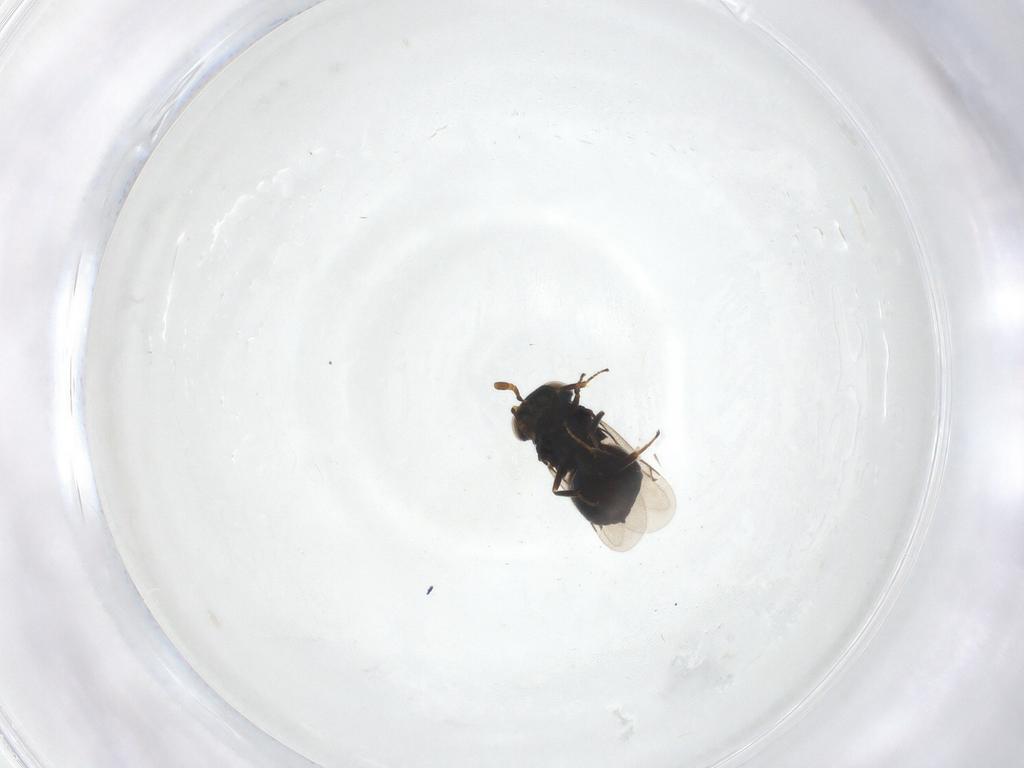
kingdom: Animalia
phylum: Arthropoda
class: Insecta
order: Hymenoptera
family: Eunotidae
